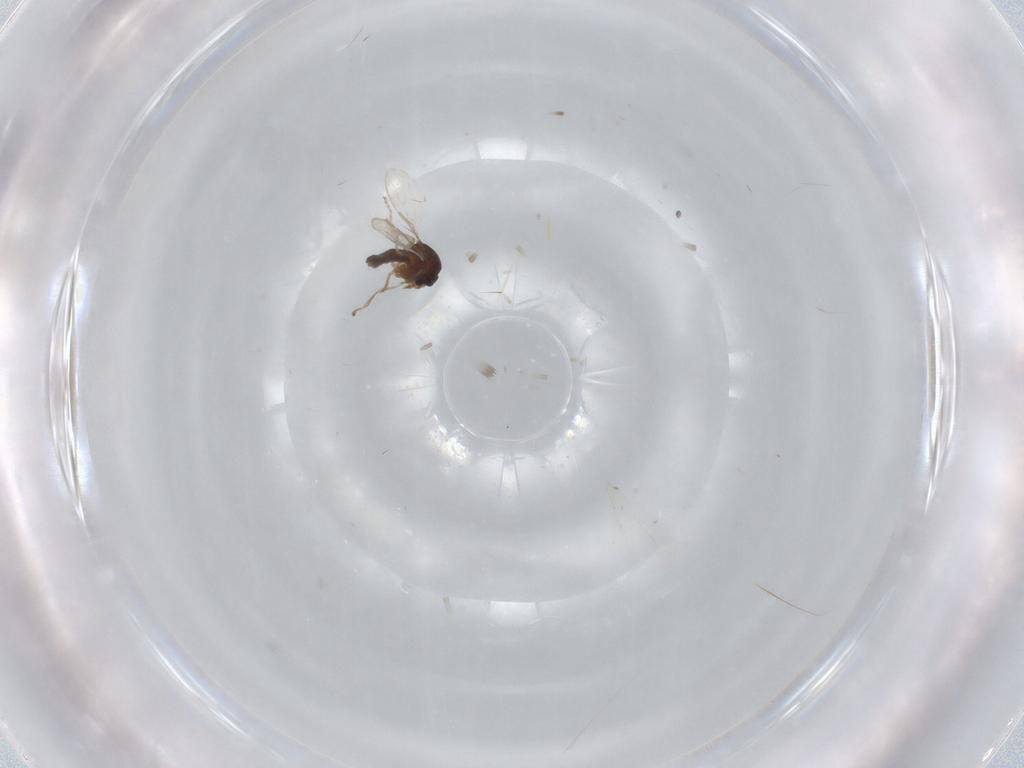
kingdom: Animalia
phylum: Arthropoda
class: Insecta
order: Diptera
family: Ceratopogonidae
